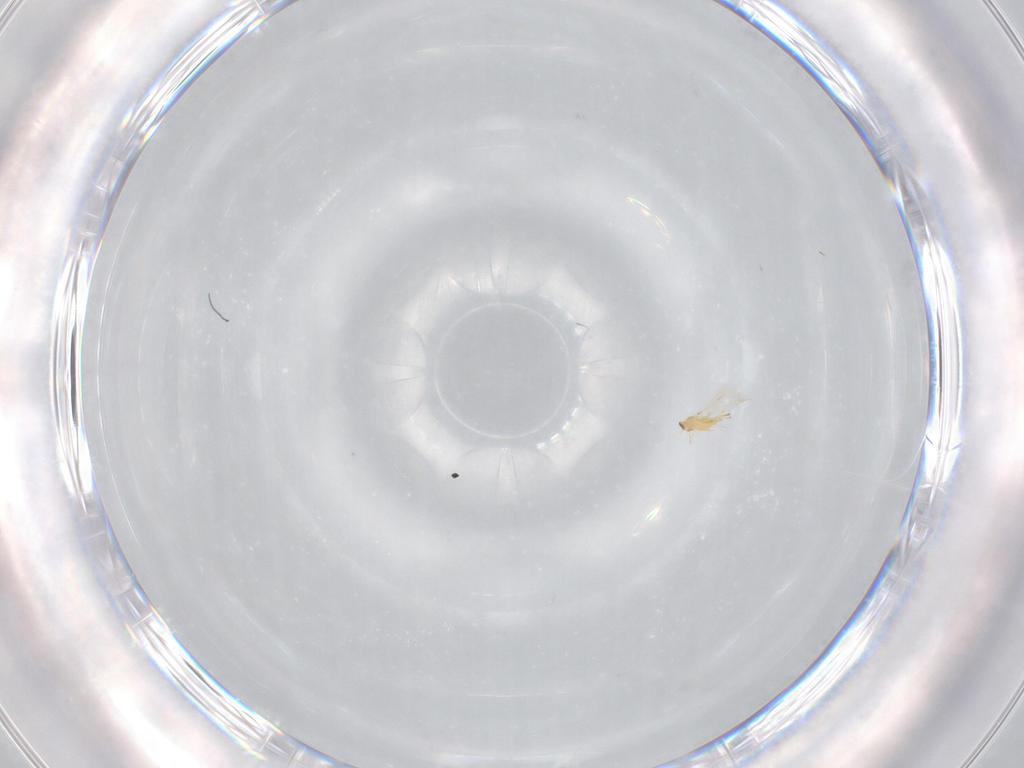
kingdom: Animalia
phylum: Arthropoda
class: Insecta
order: Hymenoptera
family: Mymaridae
